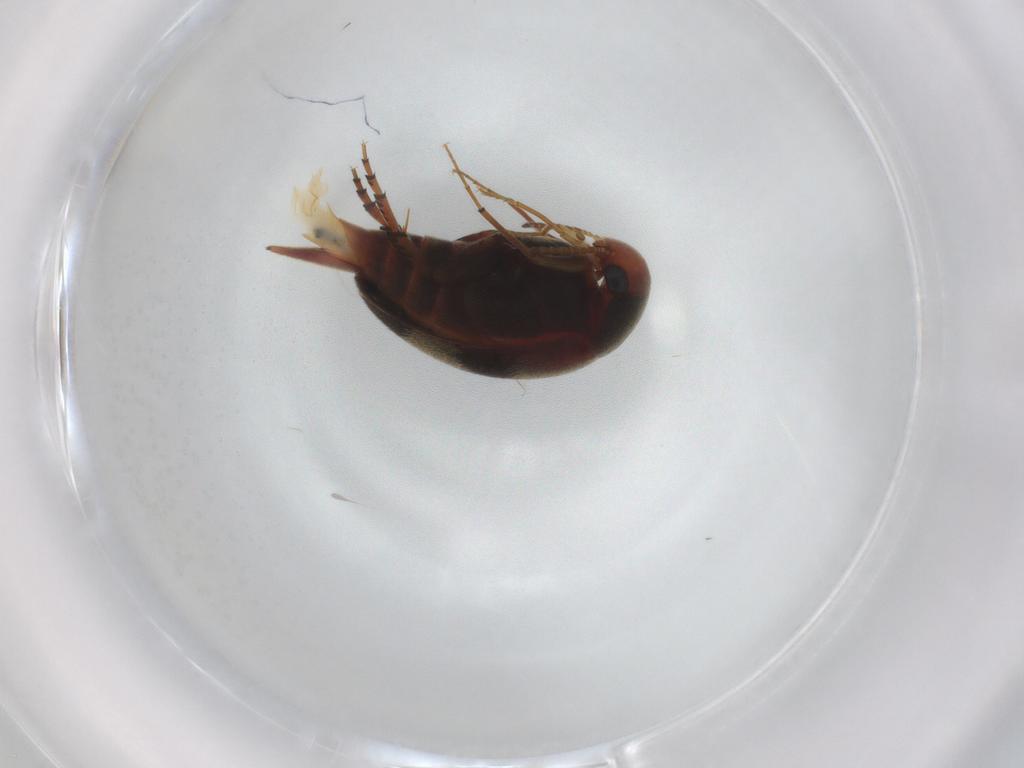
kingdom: Animalia
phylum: Arthropoda
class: Insecta
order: Coleoptera
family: Mordellidae
